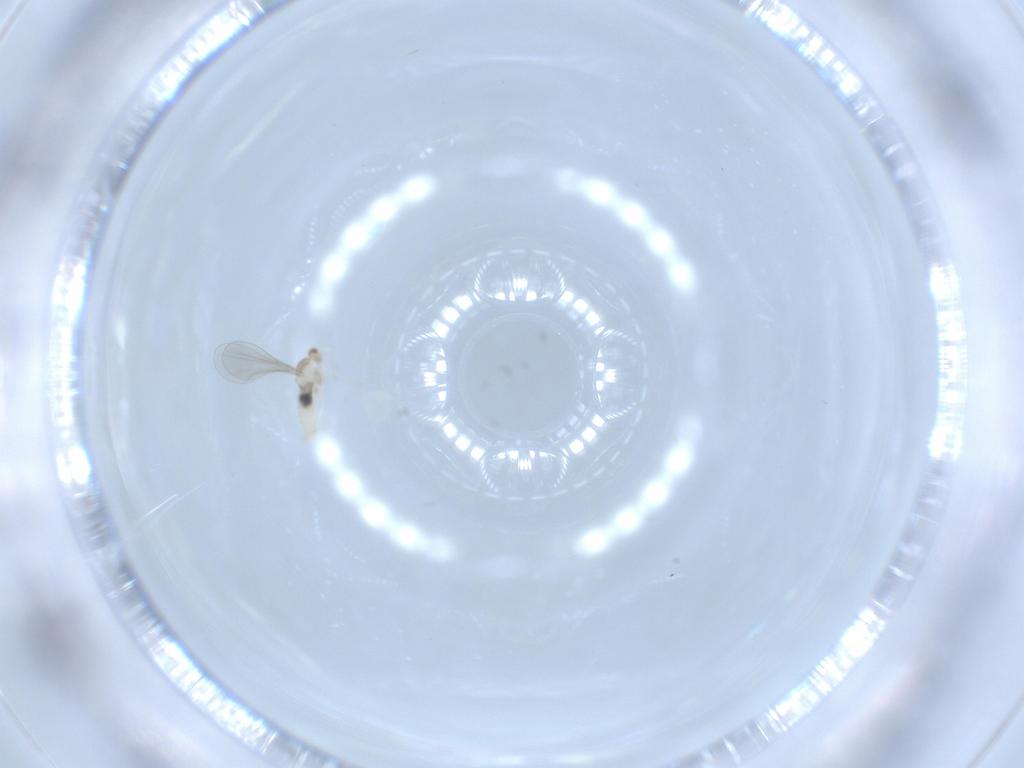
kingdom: Animalia
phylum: Arthropoda
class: Insecta
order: Diptera
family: Cecidomyiidae
